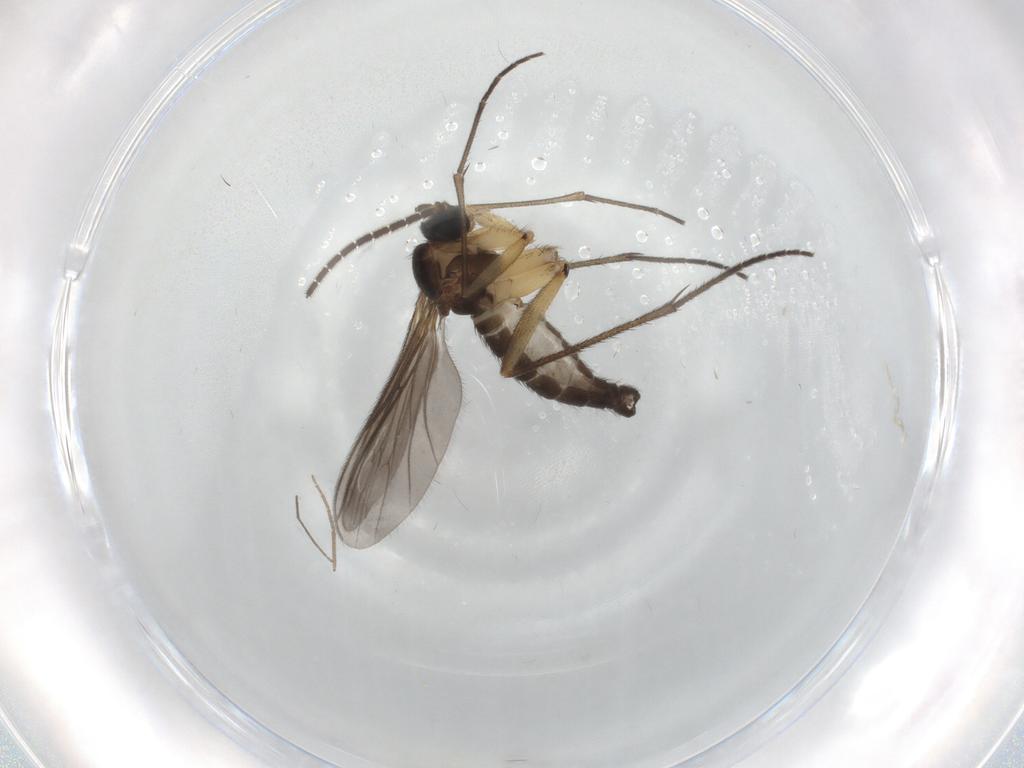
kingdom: Animalia
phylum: Arthropoda
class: Insecta
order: Diptera
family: Sciaridae
